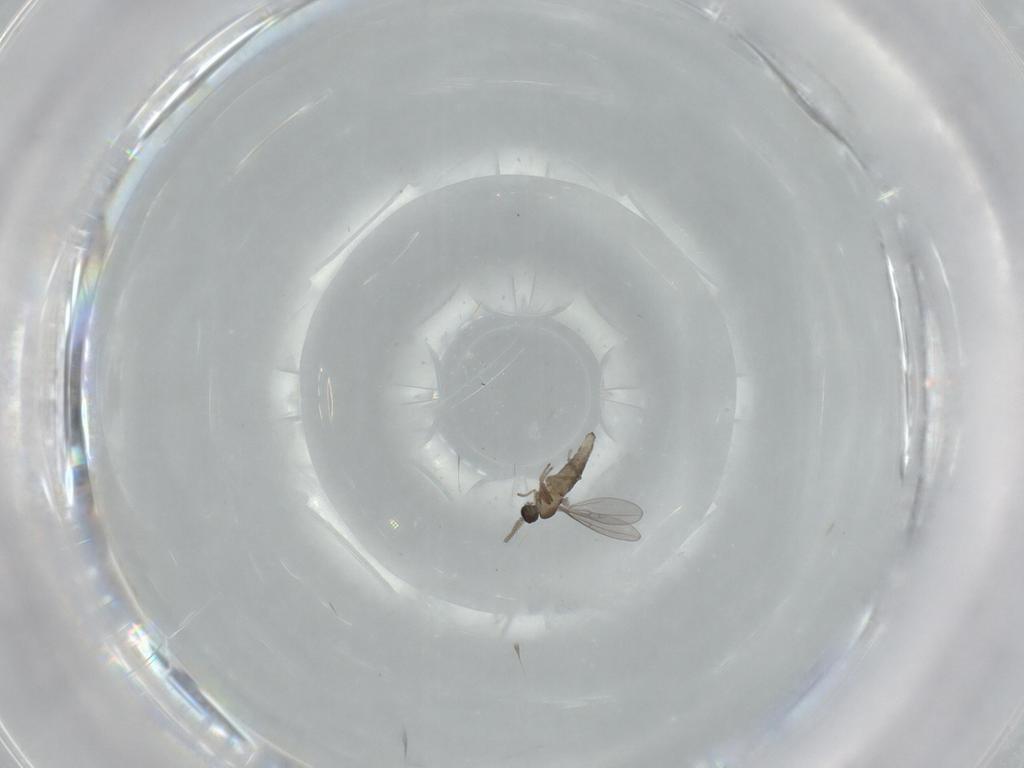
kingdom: Animalia
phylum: Arthropoda
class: Insecta
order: Diptera
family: Cecidomyiidae
